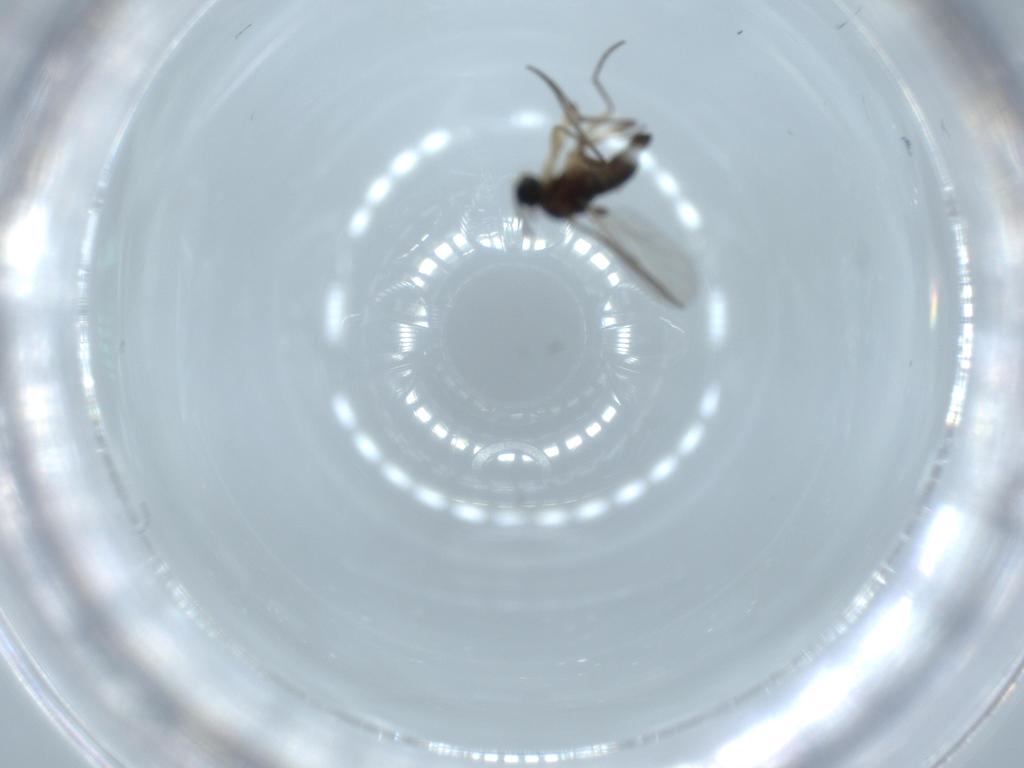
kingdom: Animalia
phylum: Arthropoda
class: Insecta
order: Diptera
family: Sciaridae
